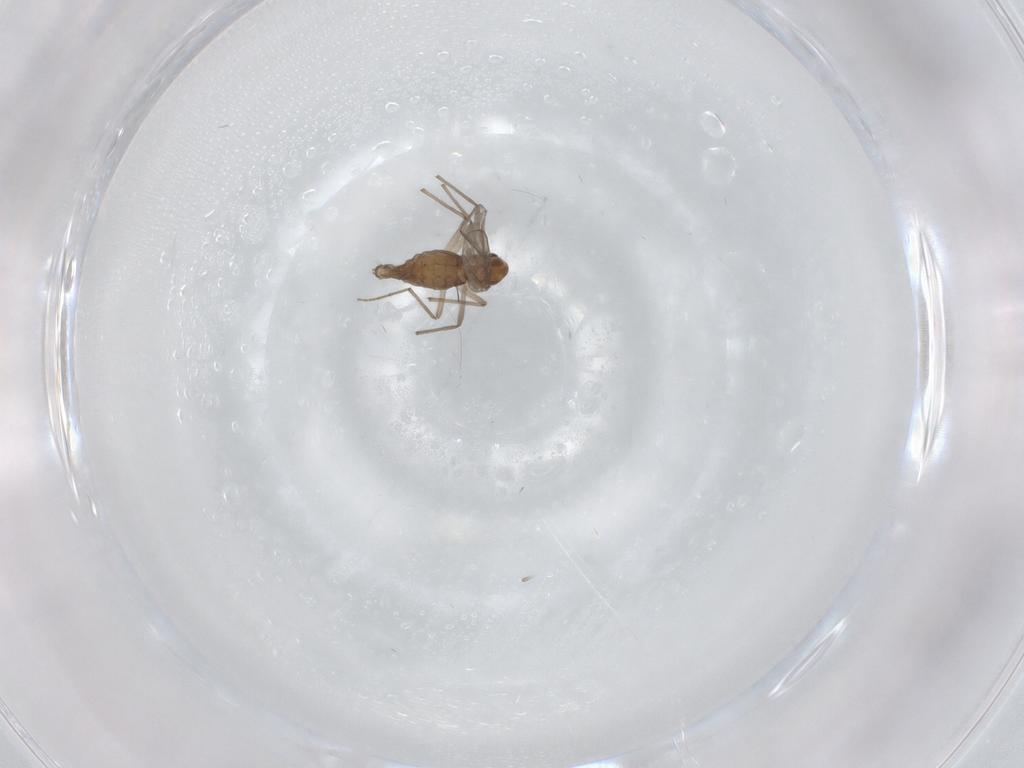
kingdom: Animalia
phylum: Arthropoda
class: Insecta
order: Diptera
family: Chironomidae
